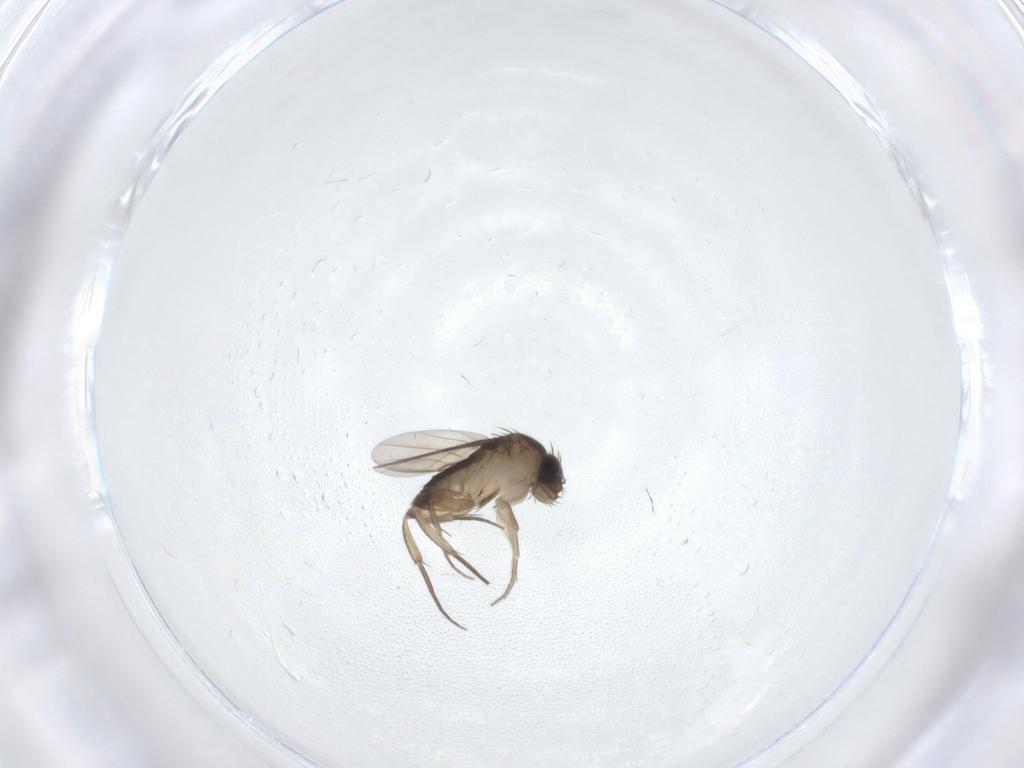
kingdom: Animalia
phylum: Arthropoda
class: Insecta
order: Diptera
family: Phoridae
